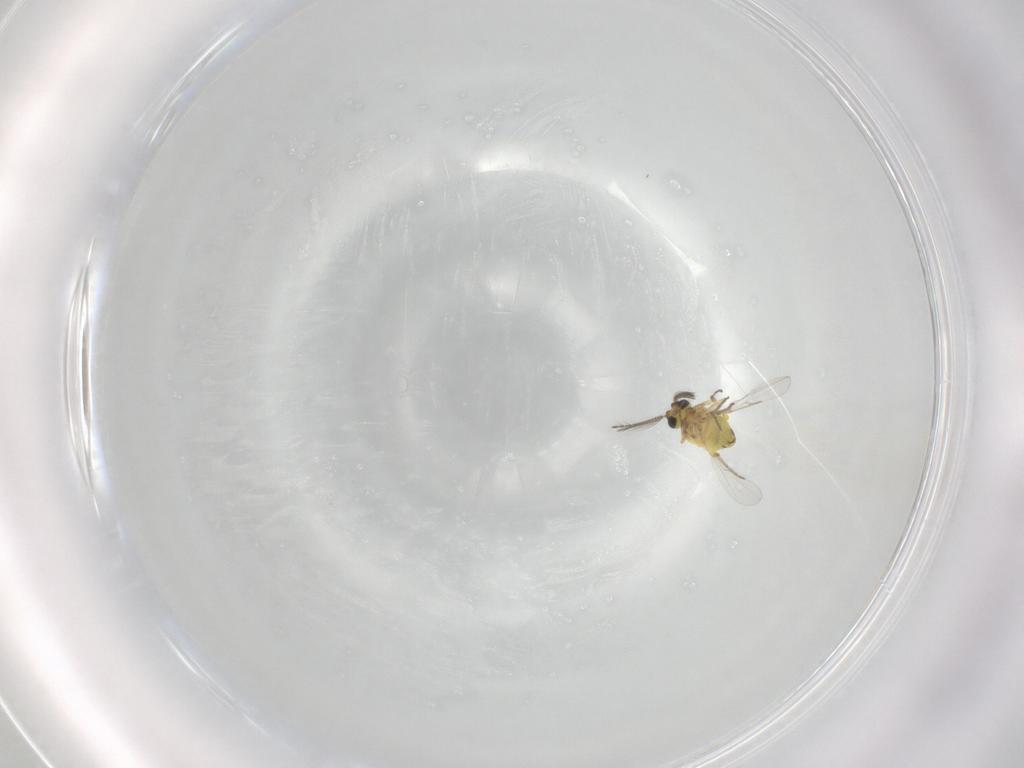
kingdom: Animalia
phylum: Arthropoda
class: Insecta
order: Diptera
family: Ceratopogonidae
